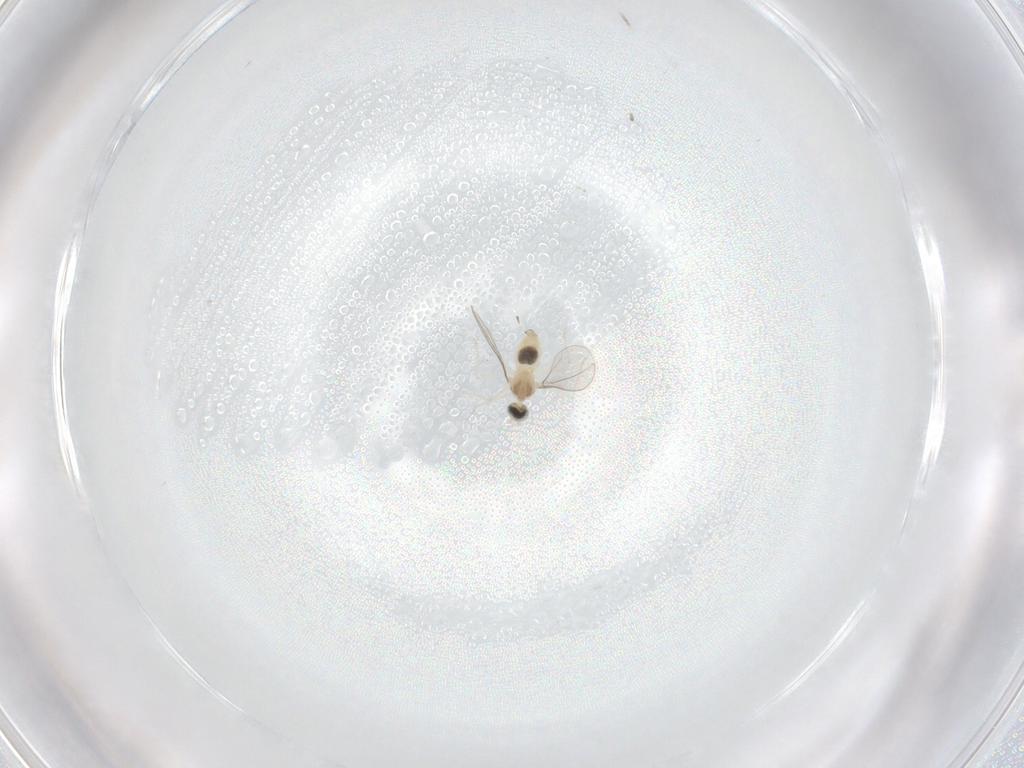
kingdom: Animalia
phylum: Arthropoda
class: Insecta
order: Diptera
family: Cecidomyiidae
